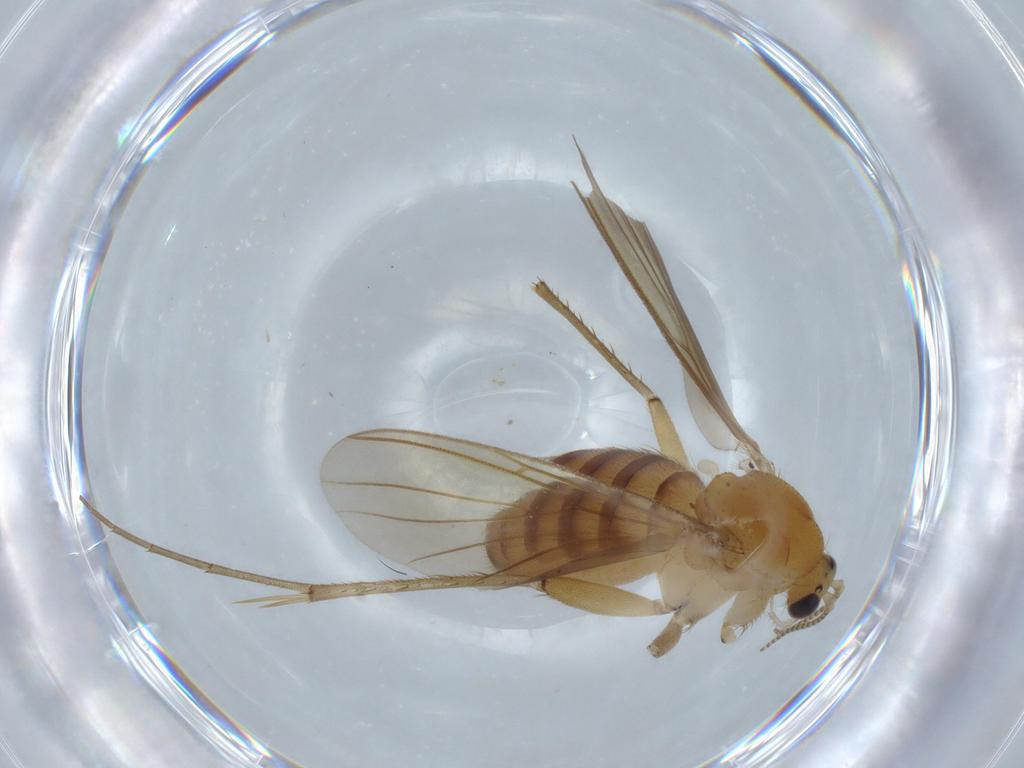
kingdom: Animalia
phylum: Arthropoda
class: Insecta
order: Diptera
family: Mycetophilidae
